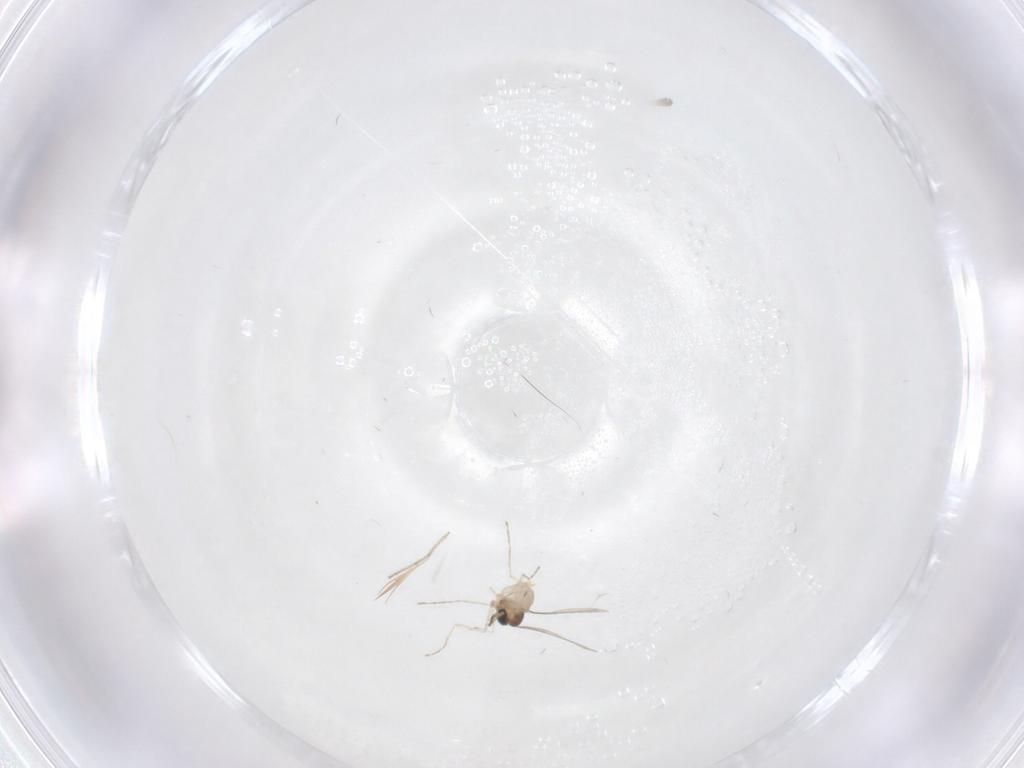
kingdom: Animalia
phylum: Arthropoda
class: Insecta
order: Diptera
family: Cecidomyiidae
